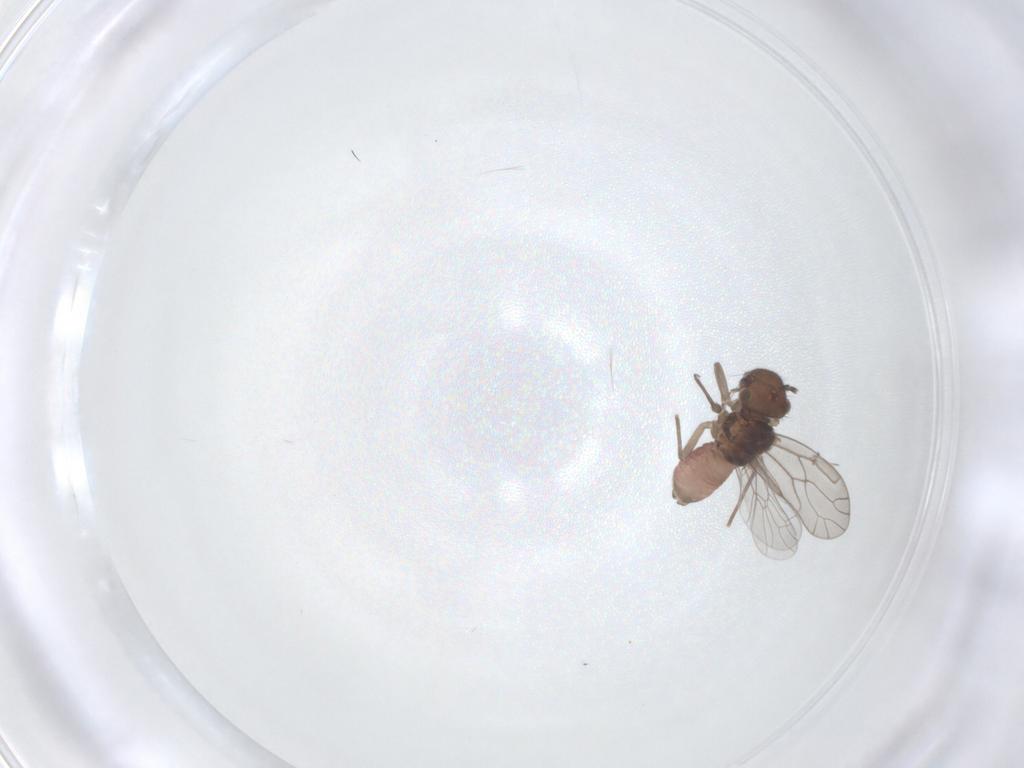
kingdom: Animalia
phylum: Arthropoda
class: Insecta
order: Psocodea
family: Ectopsocidae
